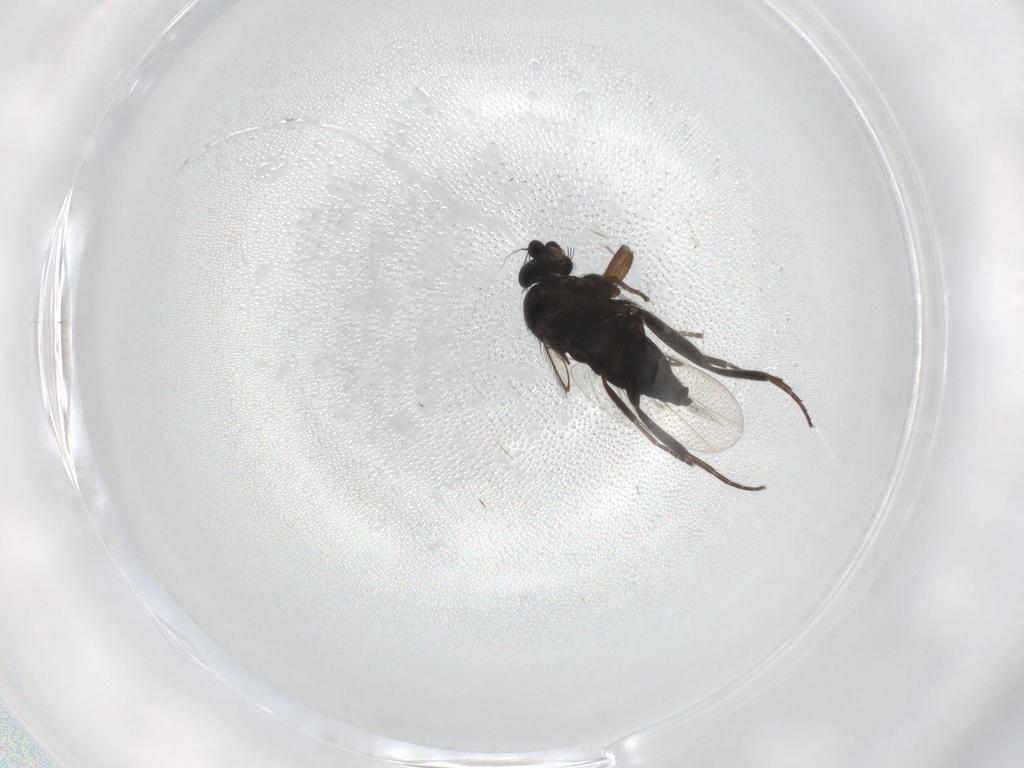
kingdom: Animalia
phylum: Arthropoda
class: Insecta
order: Diptera
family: Phoridae
